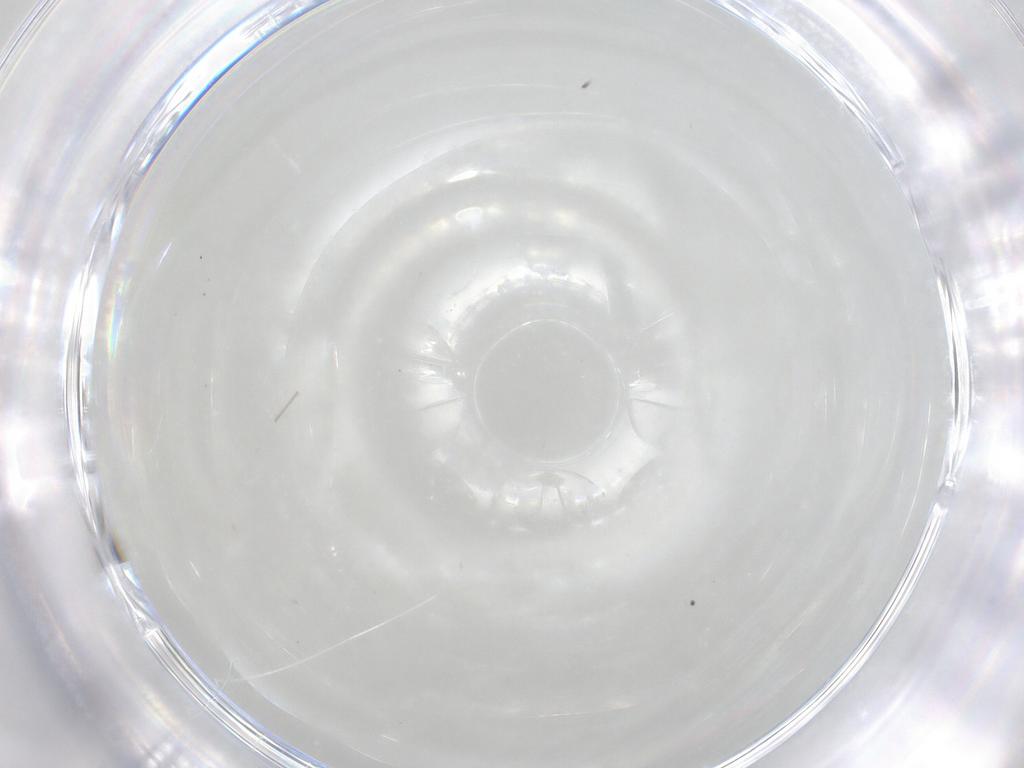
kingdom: Animalia
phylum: Arthropoda
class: Insecta
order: Diptera
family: Cecidomyiidae
